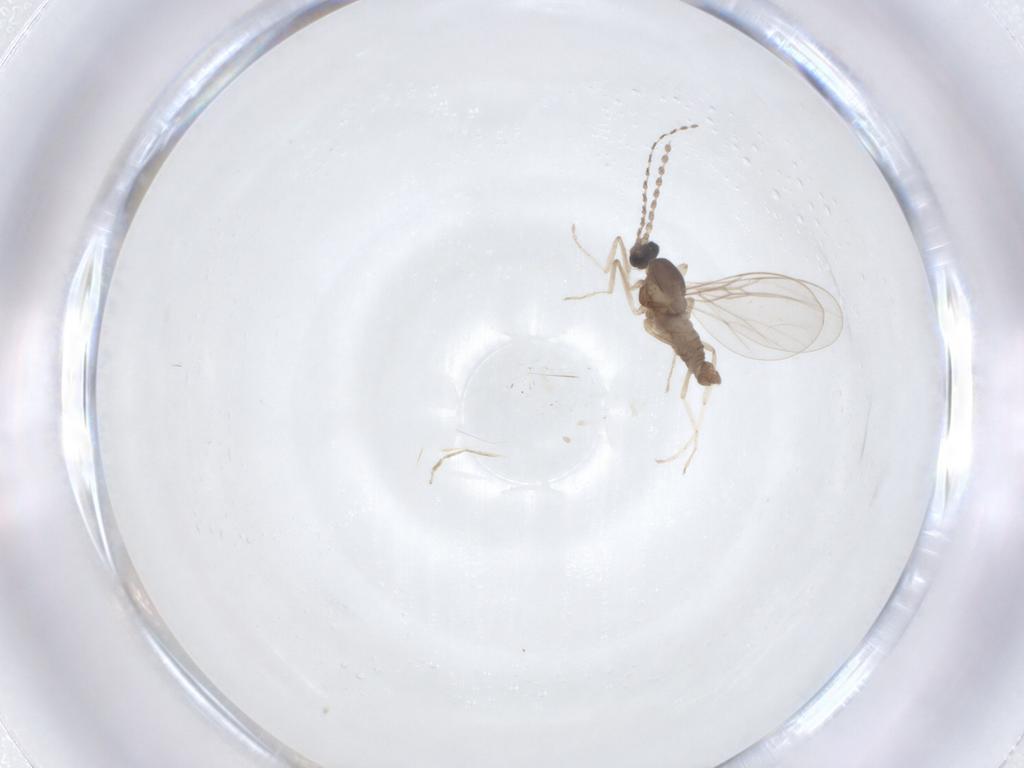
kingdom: Animalia
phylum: Arthropoda
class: Insecta
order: Diptera
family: Cecidomyiidae
